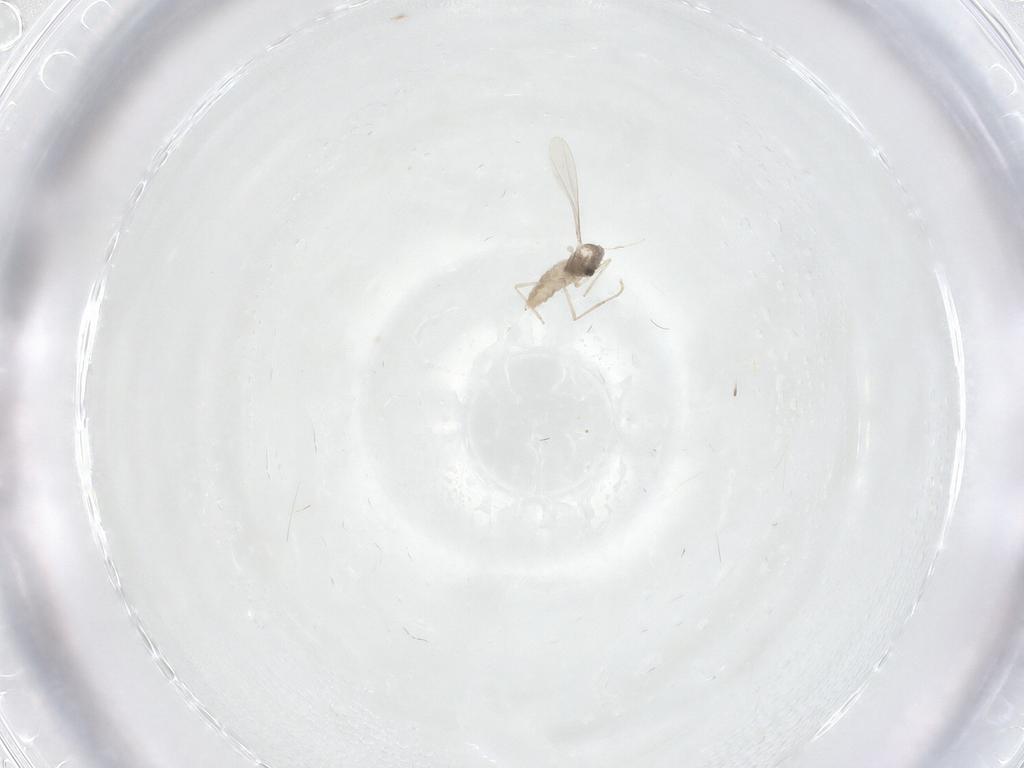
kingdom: Animalia
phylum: Arthropoda
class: Insecta
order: Diptera
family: Cecidomyiidae
